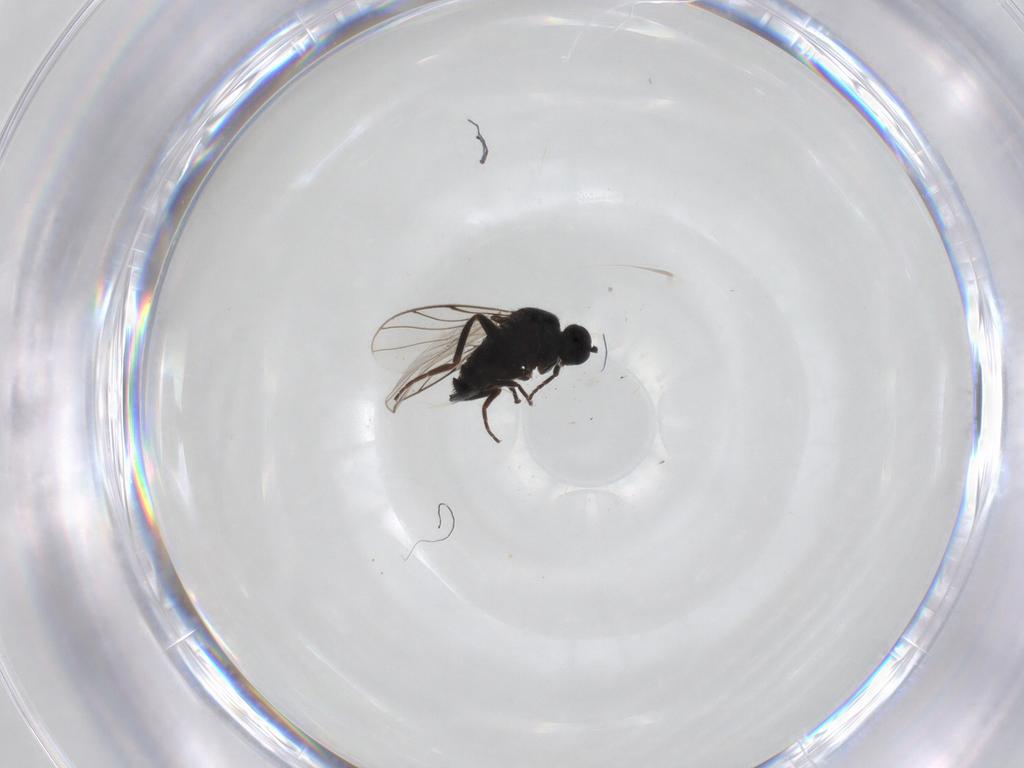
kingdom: Animalia
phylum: Arthropoda
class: Insecta
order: Diptera
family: Hybotidae
